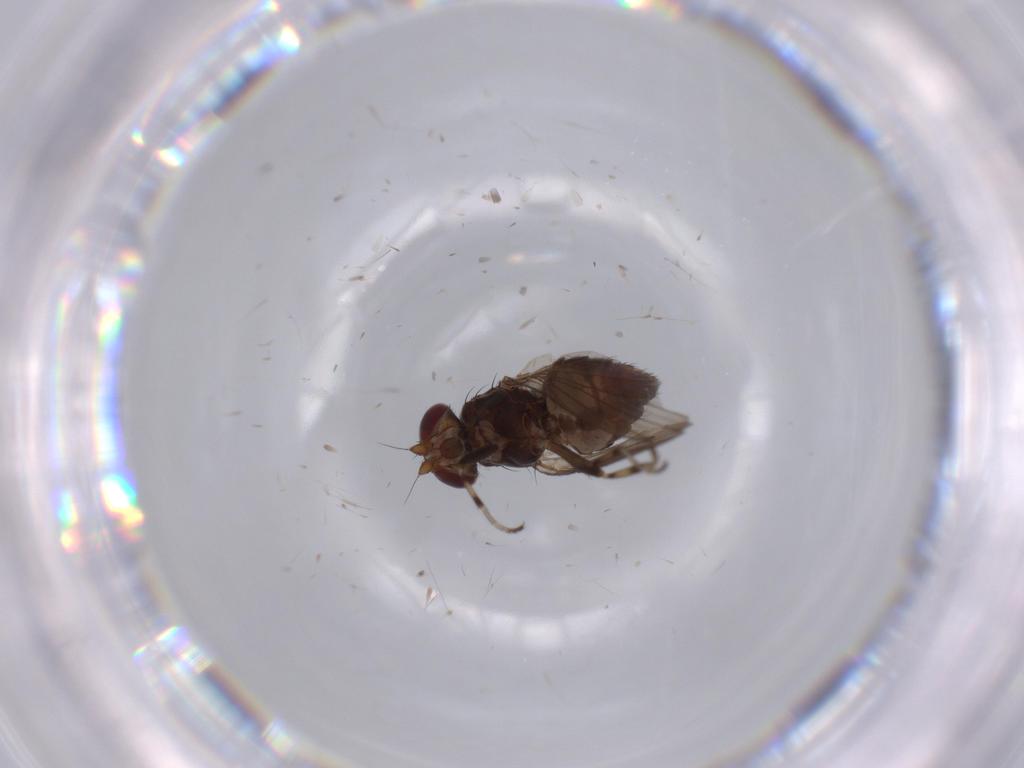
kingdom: Animalia
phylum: Arthropoda
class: Insecta
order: Diptera
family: Heleomyzidae
